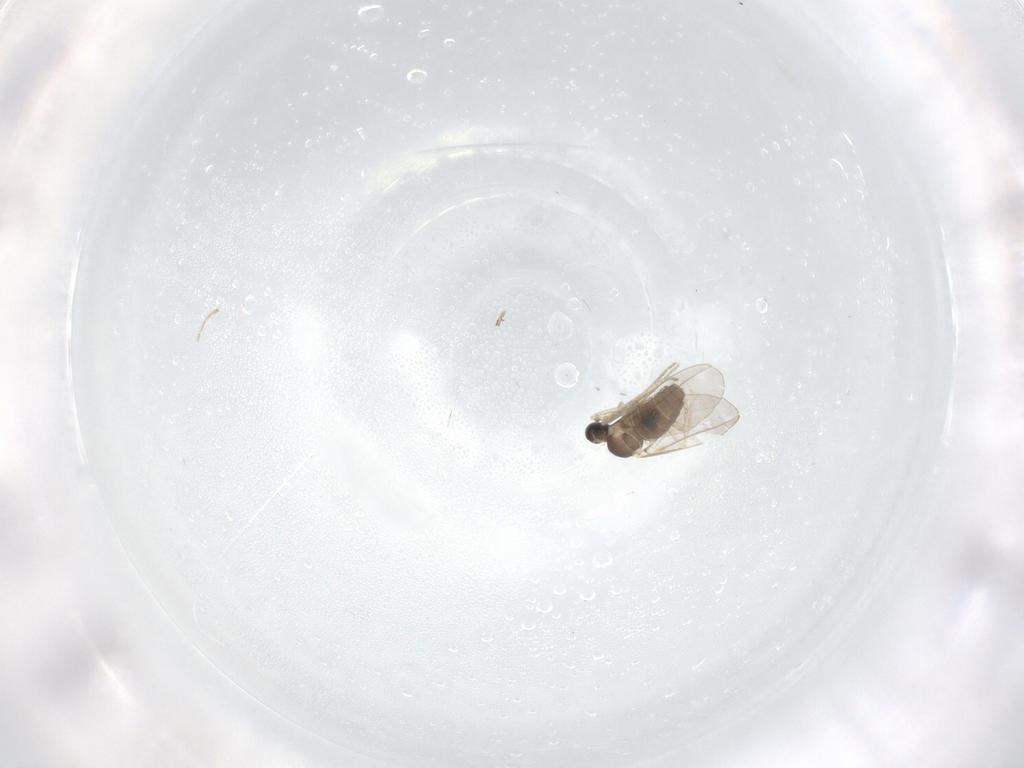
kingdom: Animalia
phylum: Arthropoda
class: Insecta
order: Diptera
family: Cecidomyiidae
